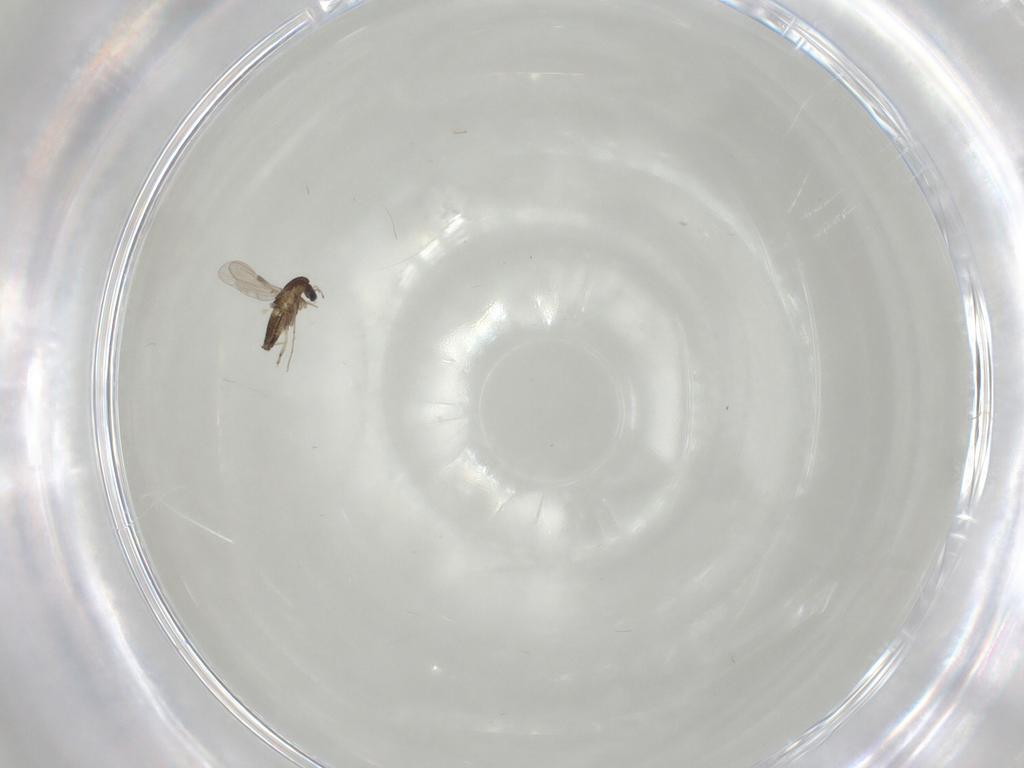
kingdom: Animalia
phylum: Arthropoda
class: Insecta
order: Diptera
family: Chironomidae
